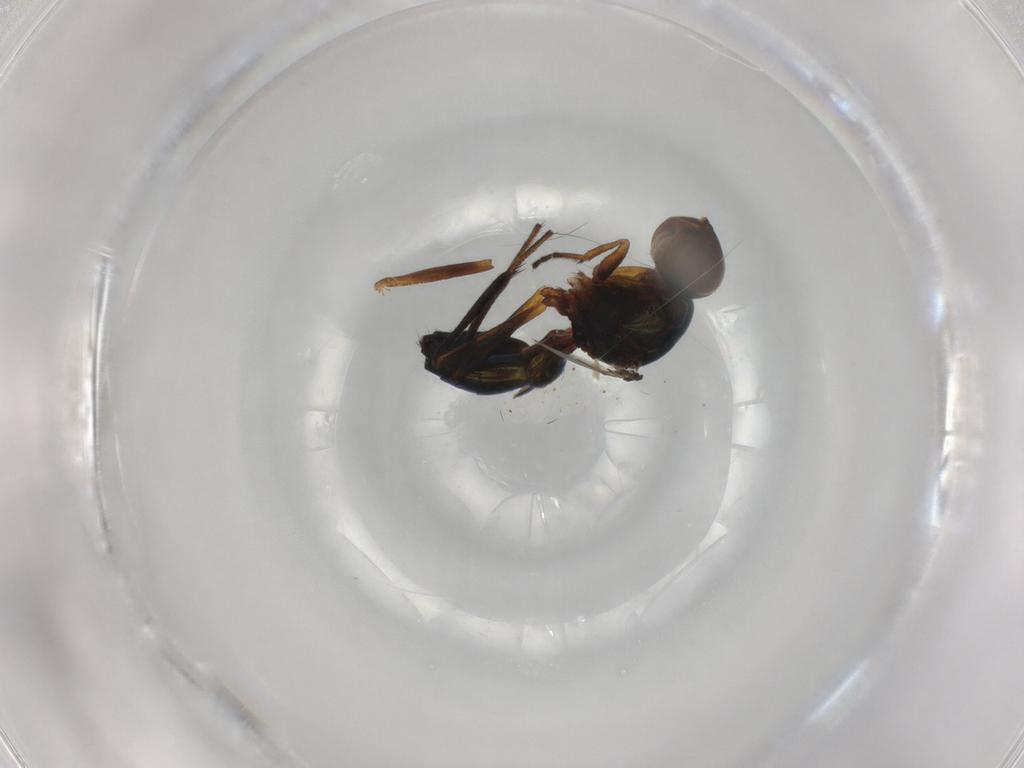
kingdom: Animalia
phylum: Arthropoda
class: Insecta
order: Diptera
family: Sepsidae
